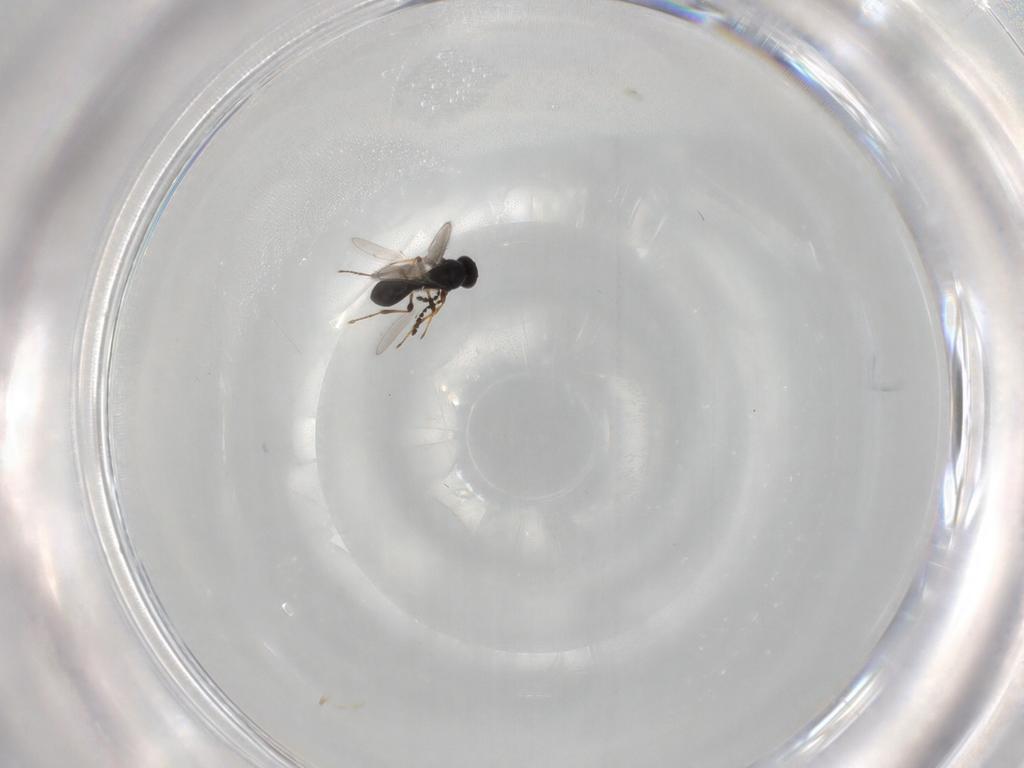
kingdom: Animalia
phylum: Arthropoda
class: Insecta
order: Hymenoptera
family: Platygastridae
